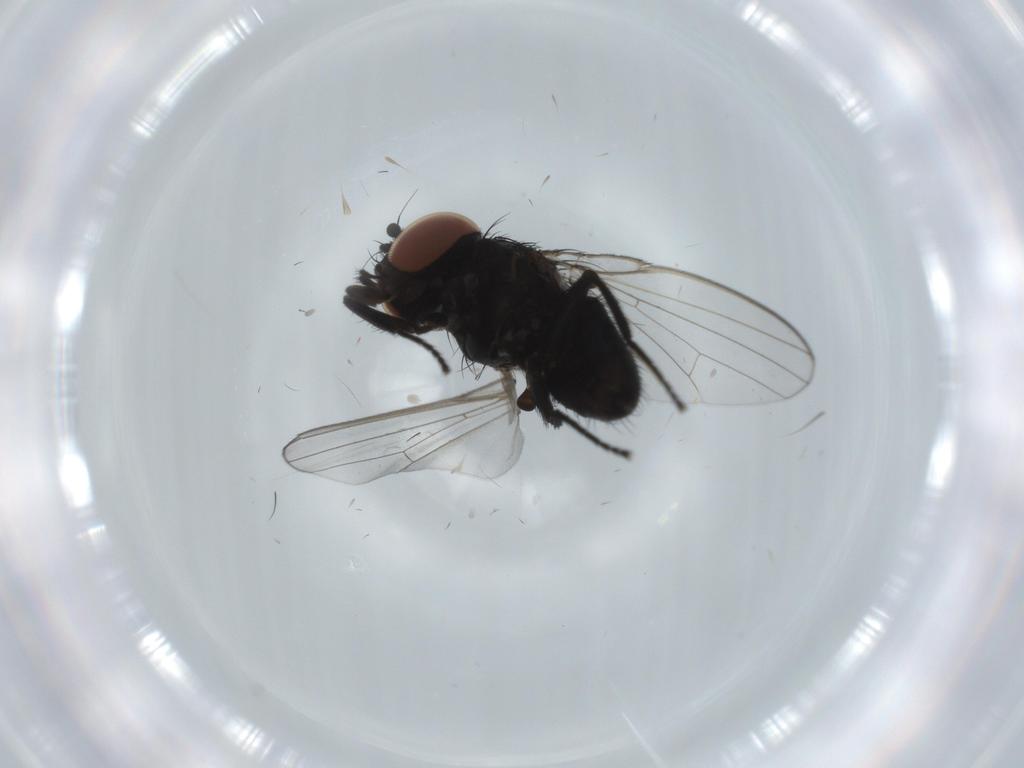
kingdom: Animalia
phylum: Arthropoda
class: Insecta
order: Diptera
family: Milichiidae
